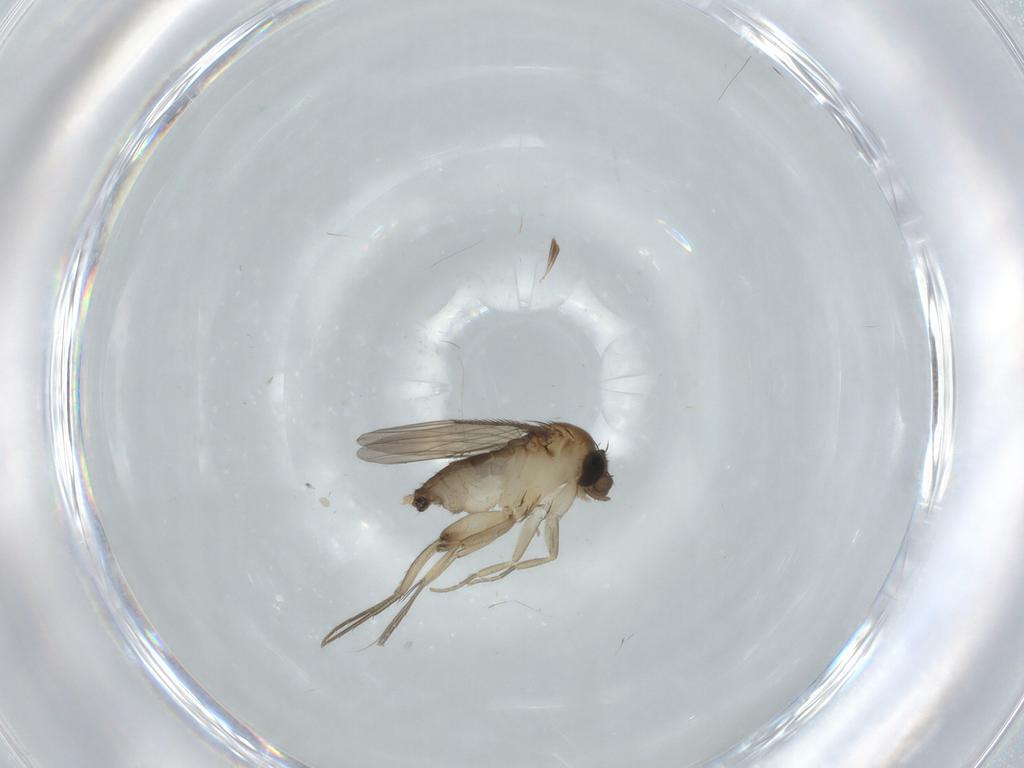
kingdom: Animalia
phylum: Arthropoda
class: Insecta
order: Diptera
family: Phoridae
